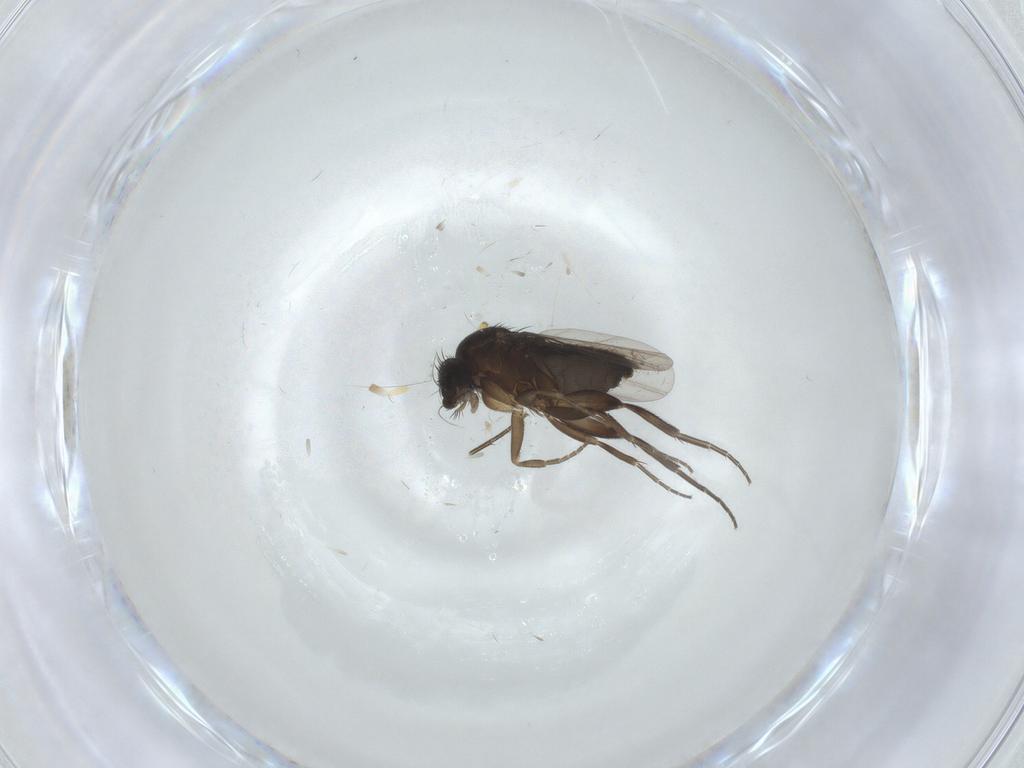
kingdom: Animalia
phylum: Arthropoda
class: Insecta
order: Diptera
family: Phoridae
